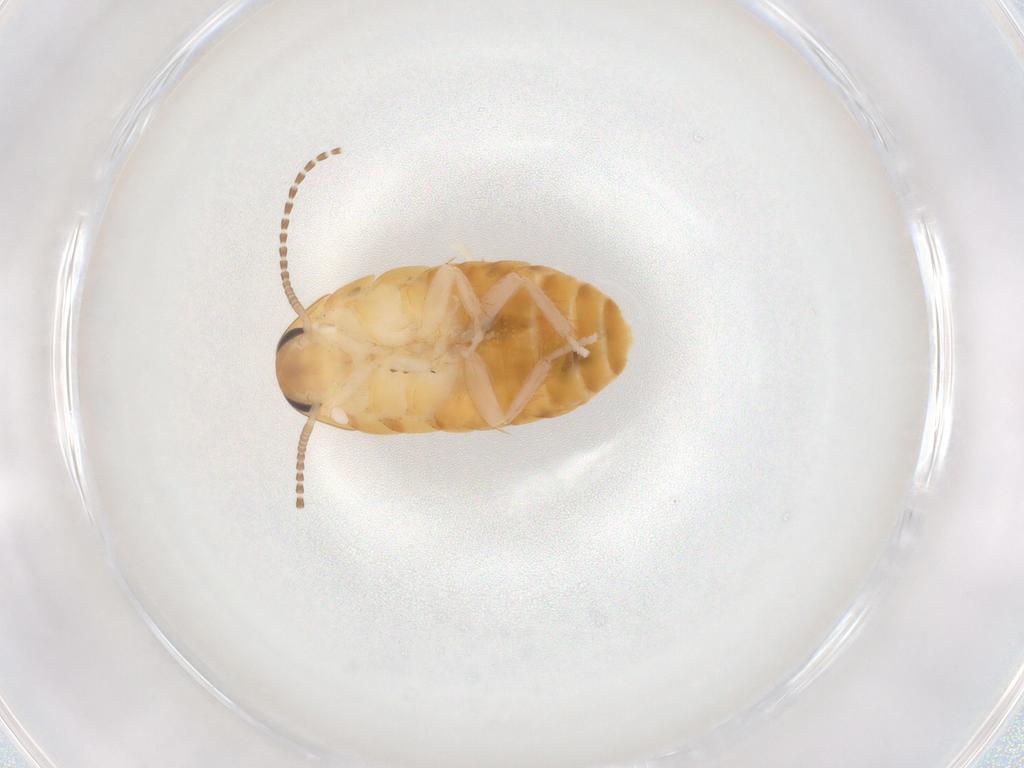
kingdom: Animalia
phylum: Arthropoda
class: Insecta
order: Blattodea
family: Blaberidae
